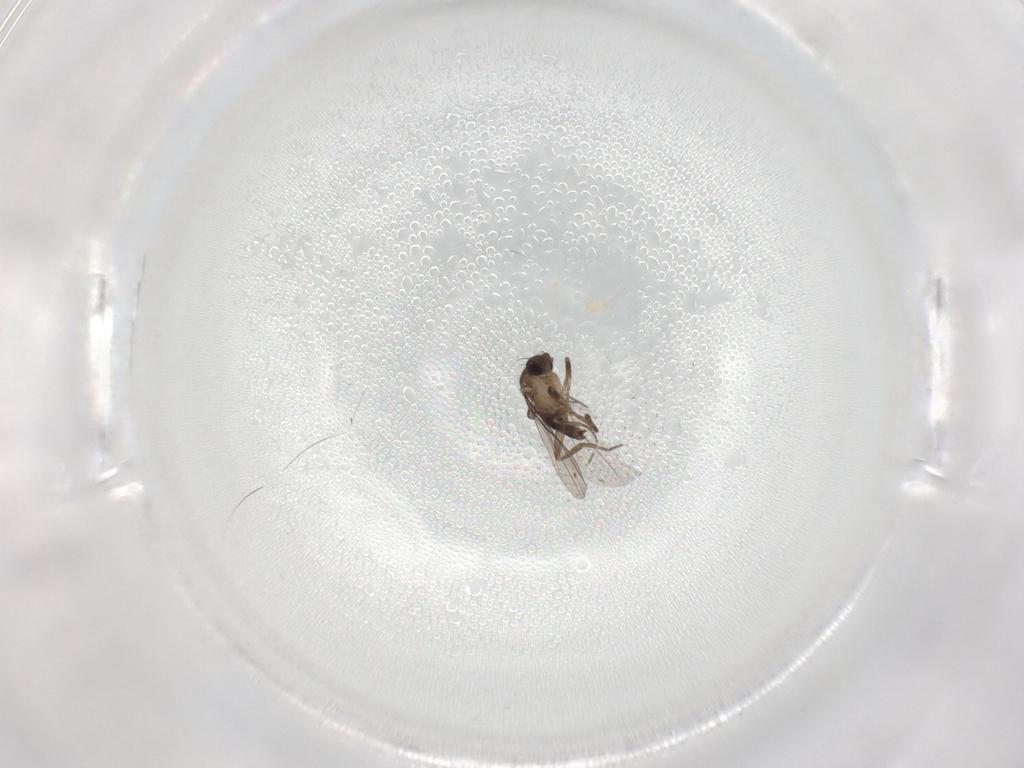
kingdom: Animalia
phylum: Arthropoda
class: Insecta
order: Diptera
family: Phoridae
